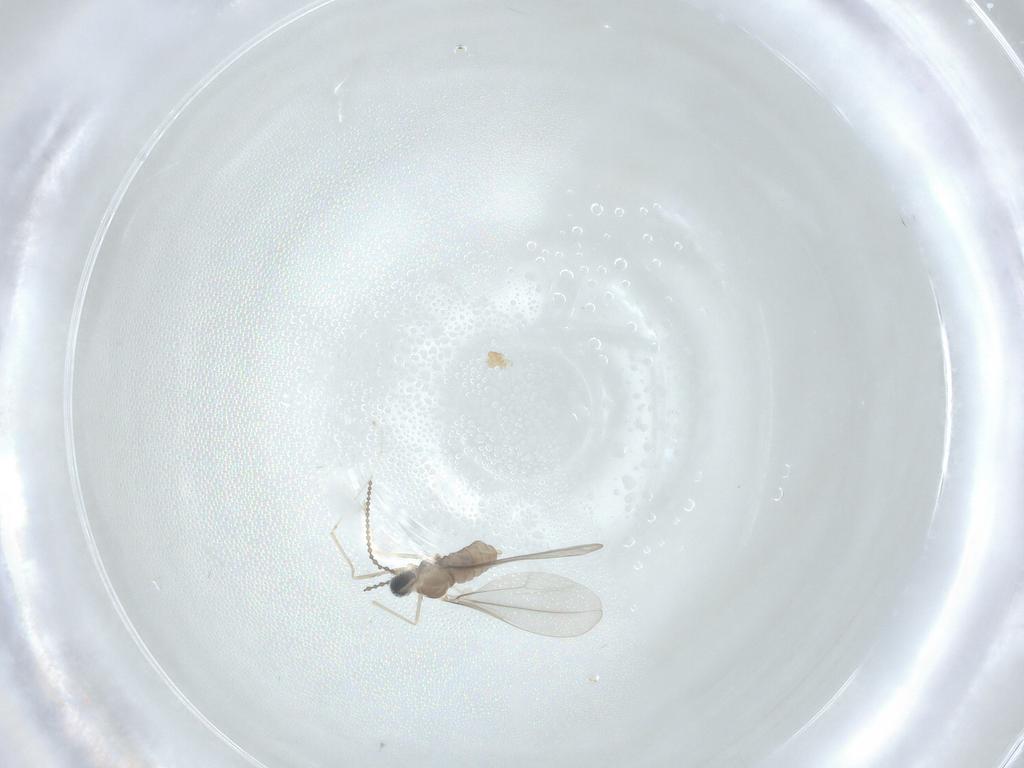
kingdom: Animalia
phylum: Arthropoda
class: Insecta
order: Diptera
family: Cecidomyiidae
